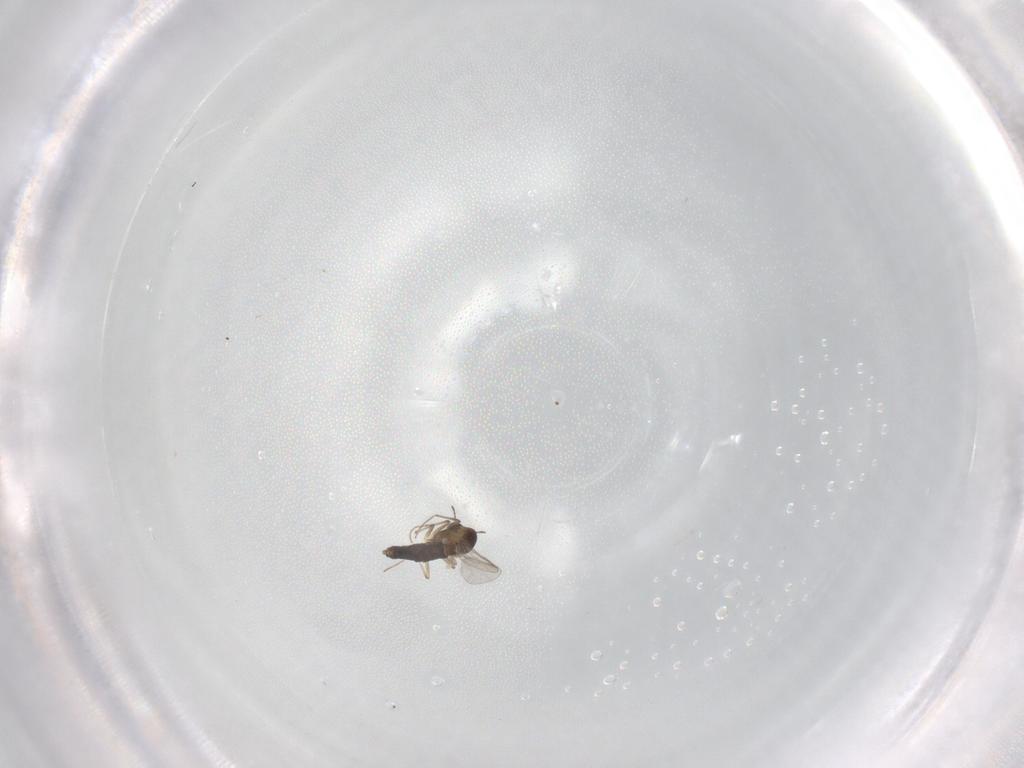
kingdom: Animalia
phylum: Arthropoda
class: Insecta
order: Diptera
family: Chironomidae
